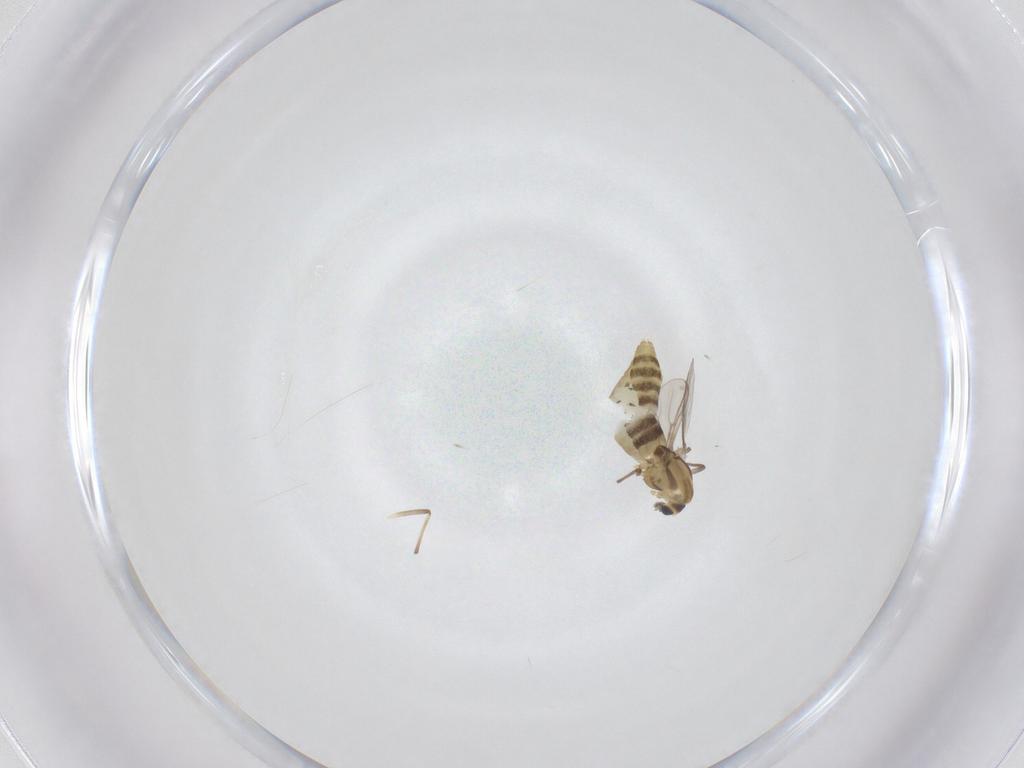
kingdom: Animalia
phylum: Arthropoda
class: Insecta
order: Diptera
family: Chironomidae
